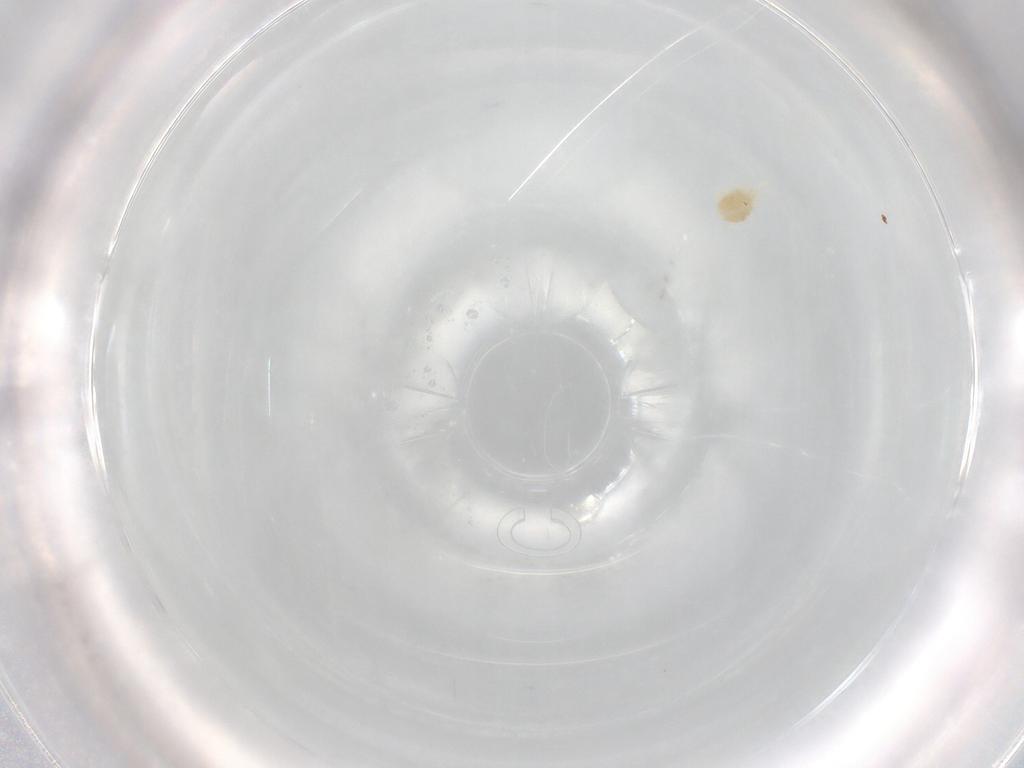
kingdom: Animalia
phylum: Arthropoda
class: Arachnida
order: Trombidiformes
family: Eupodidae
